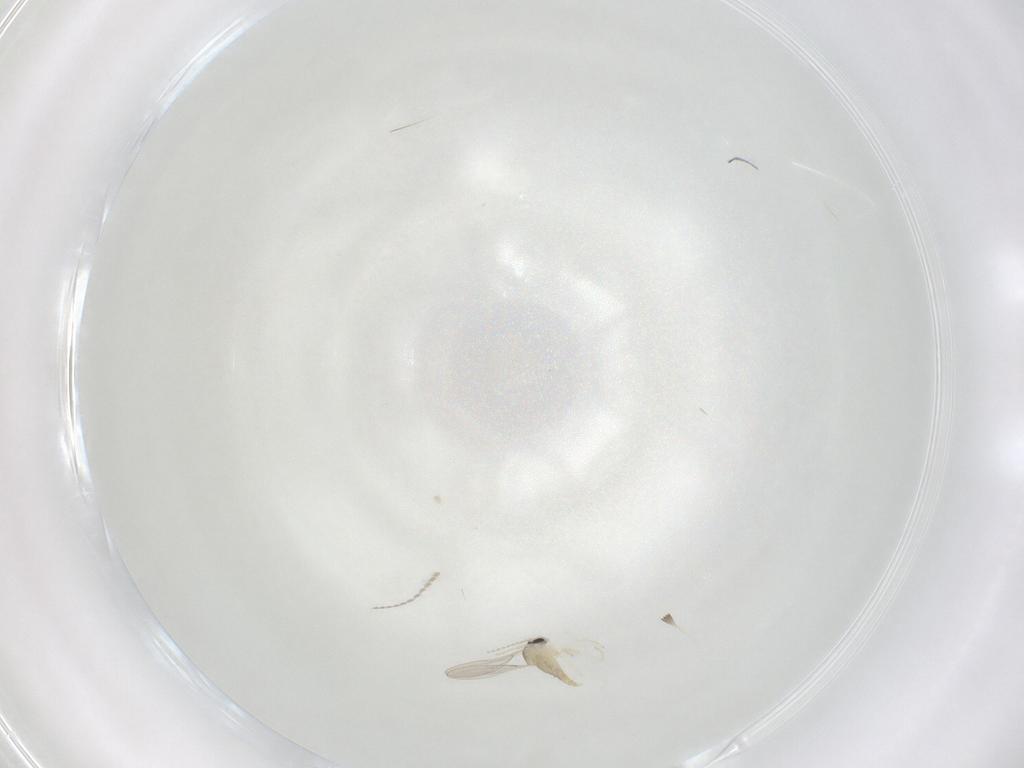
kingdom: Animalia
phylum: Arthropoda
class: Insecta
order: Diptera
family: Cecidomyiidae
